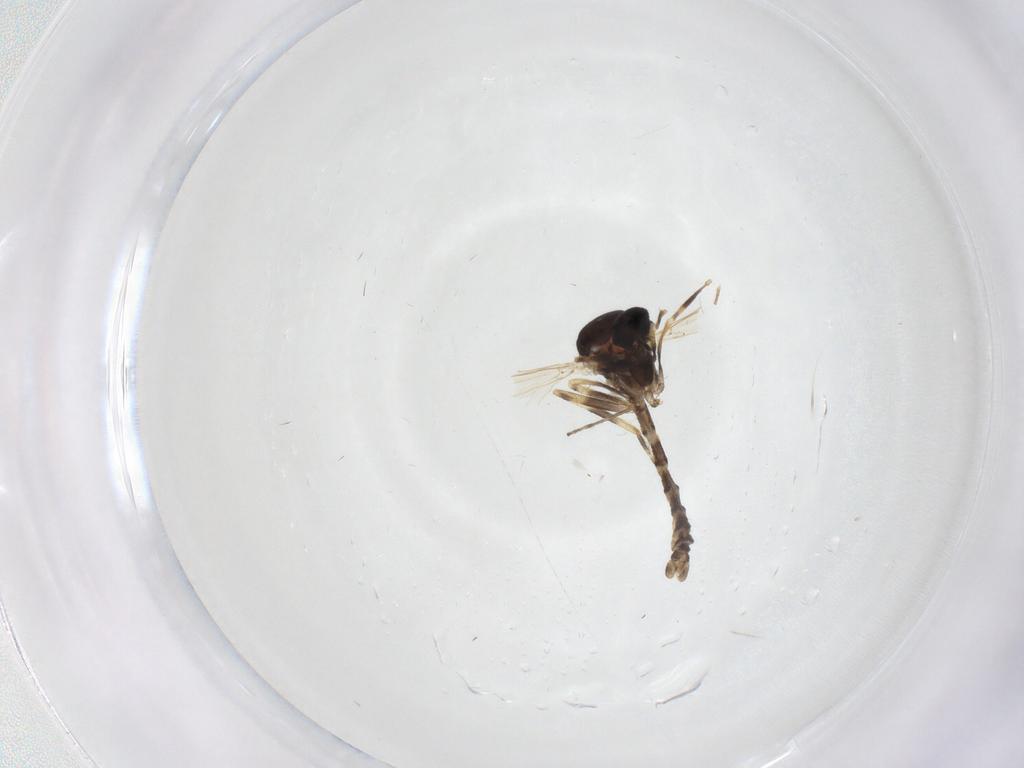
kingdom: Animalia
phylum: Arthropoda
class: Insecta
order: Diptera
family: Ceratopogonidae
